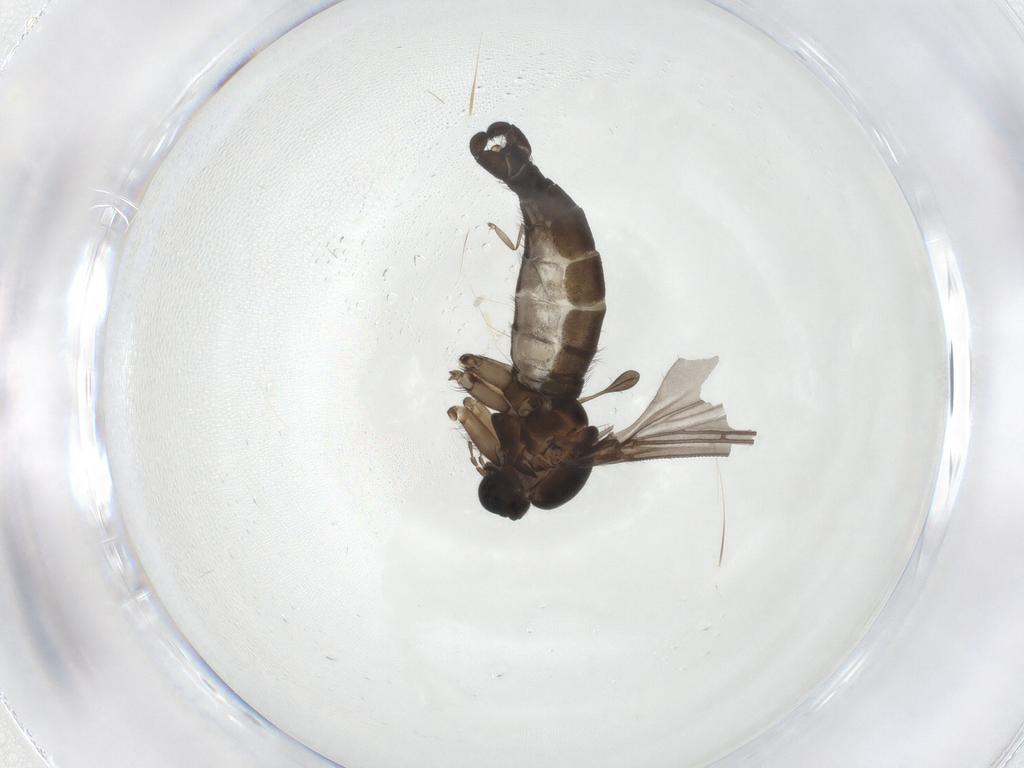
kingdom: Animalia
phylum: Arthropoda
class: Insecta
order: Diptera
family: Sciaridae
